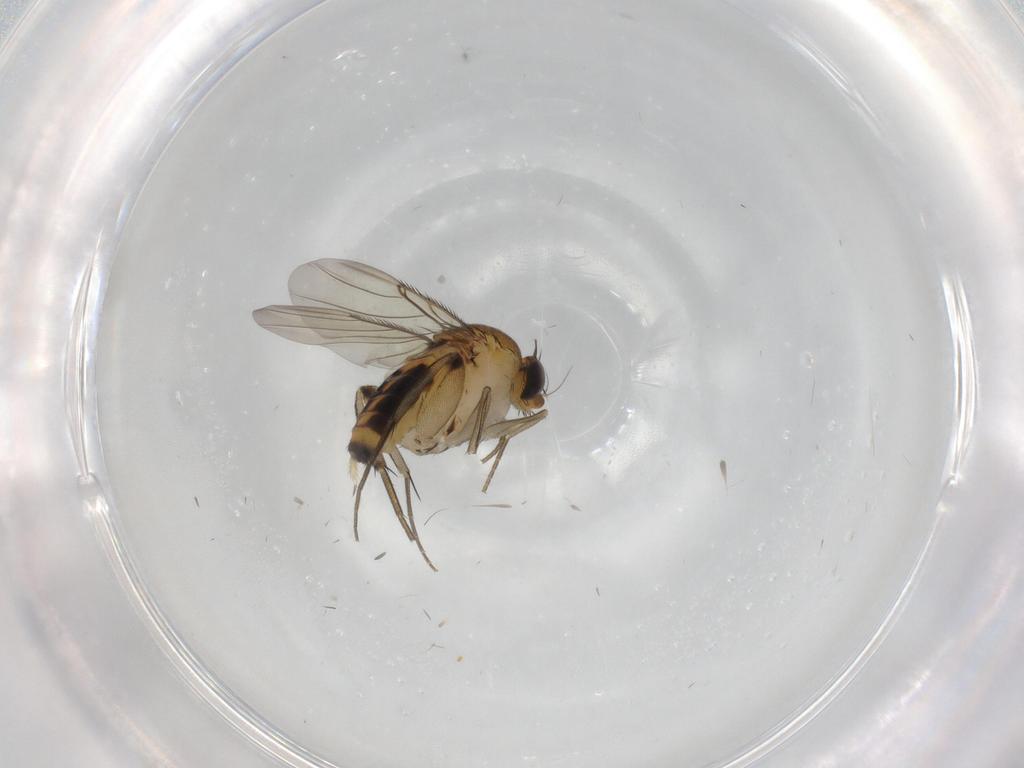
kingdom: Animalia
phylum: Arthropoda
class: Insecta
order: Diptera
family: Phoridae
